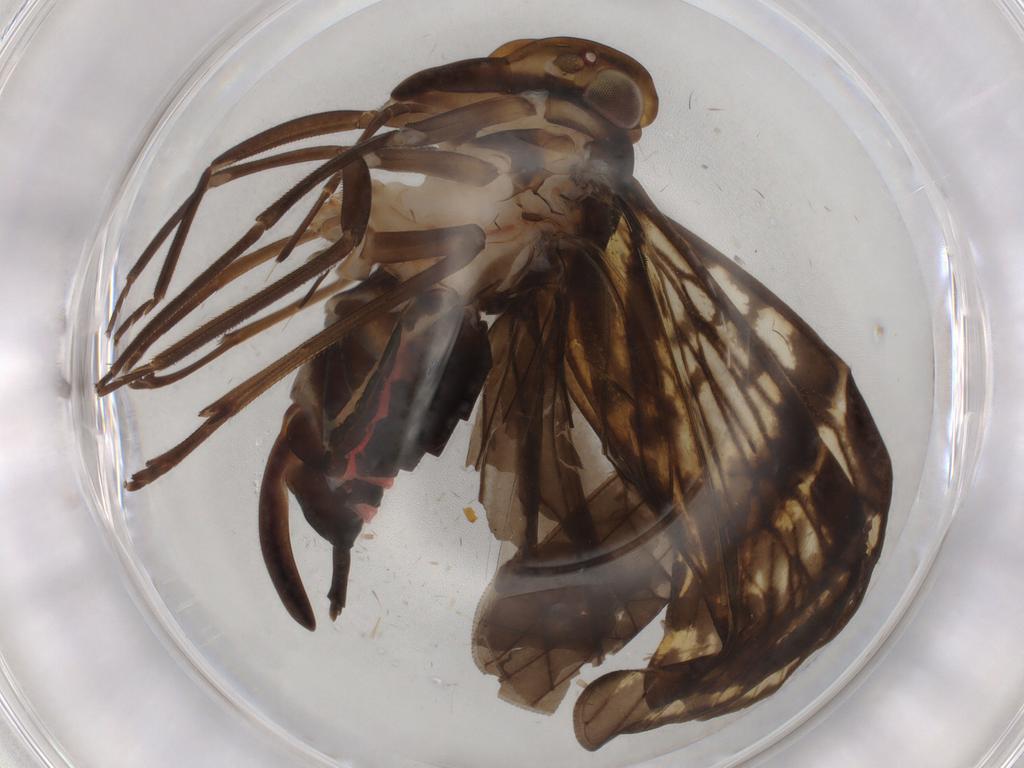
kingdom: Animalia
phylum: Arthropoda
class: Insecta
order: Hemiptera
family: Cixiidae
